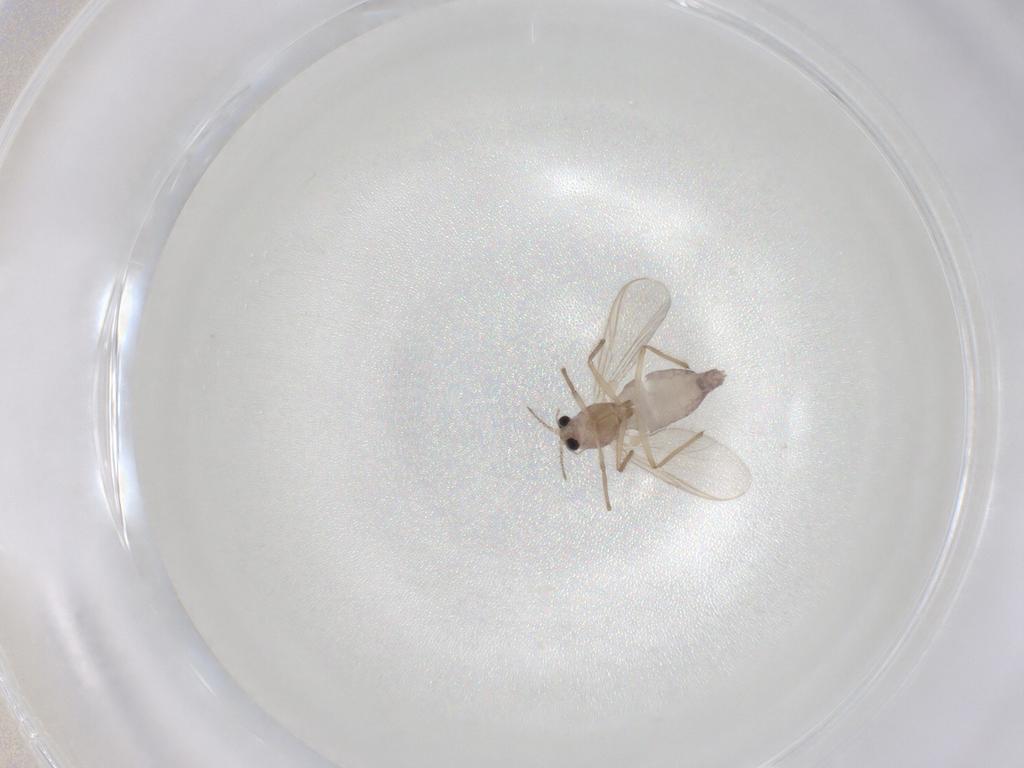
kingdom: Animalia
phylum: Arthropoda
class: Insecta
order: Diptera
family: Chironomidae
